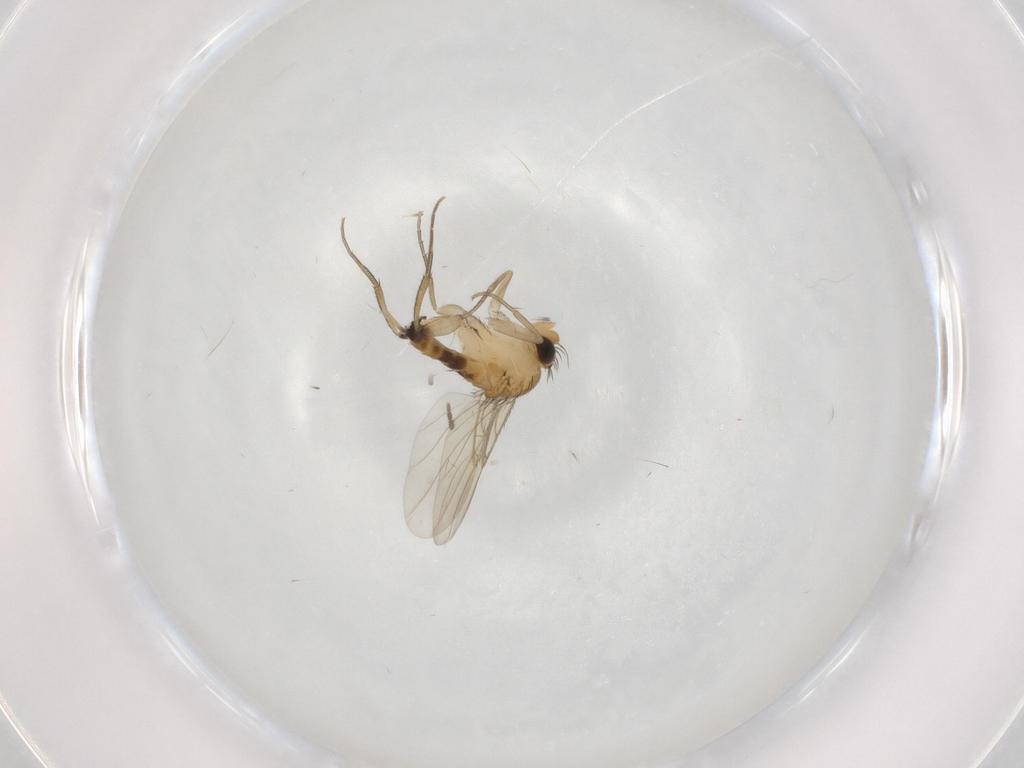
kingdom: Animalia
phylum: Arthropoda
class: Insecta
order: Diptera
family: Phoridae
